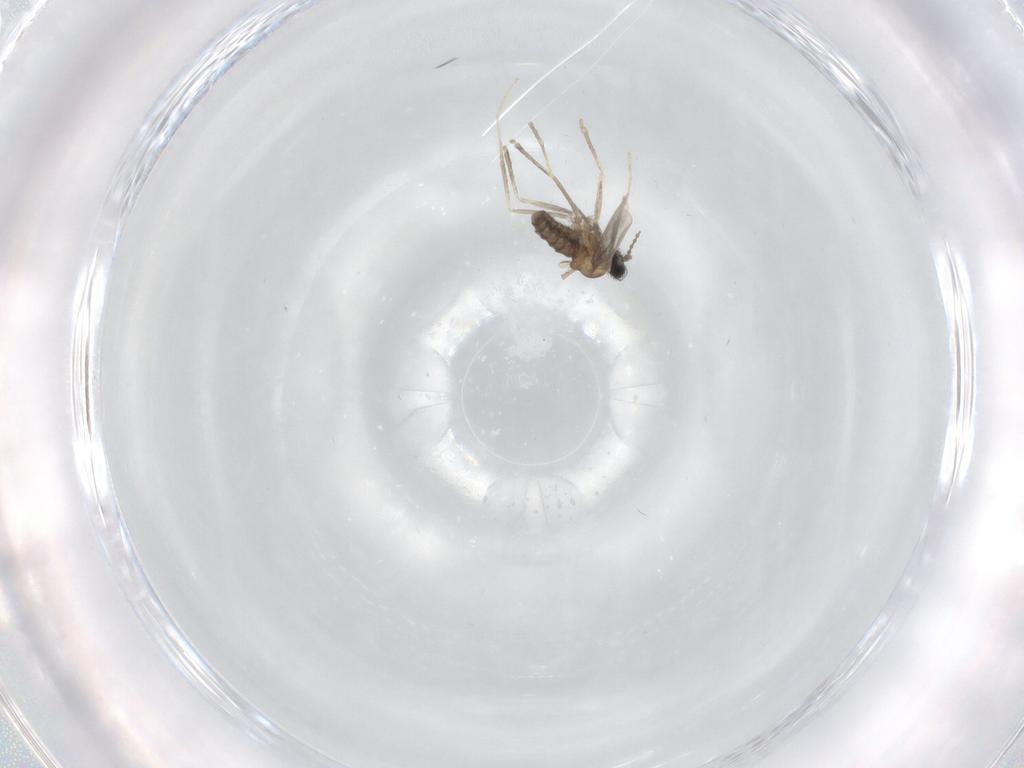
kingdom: Animalia
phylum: Arthropoda
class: Insecta
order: Diptera
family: Cecidomyiidae
